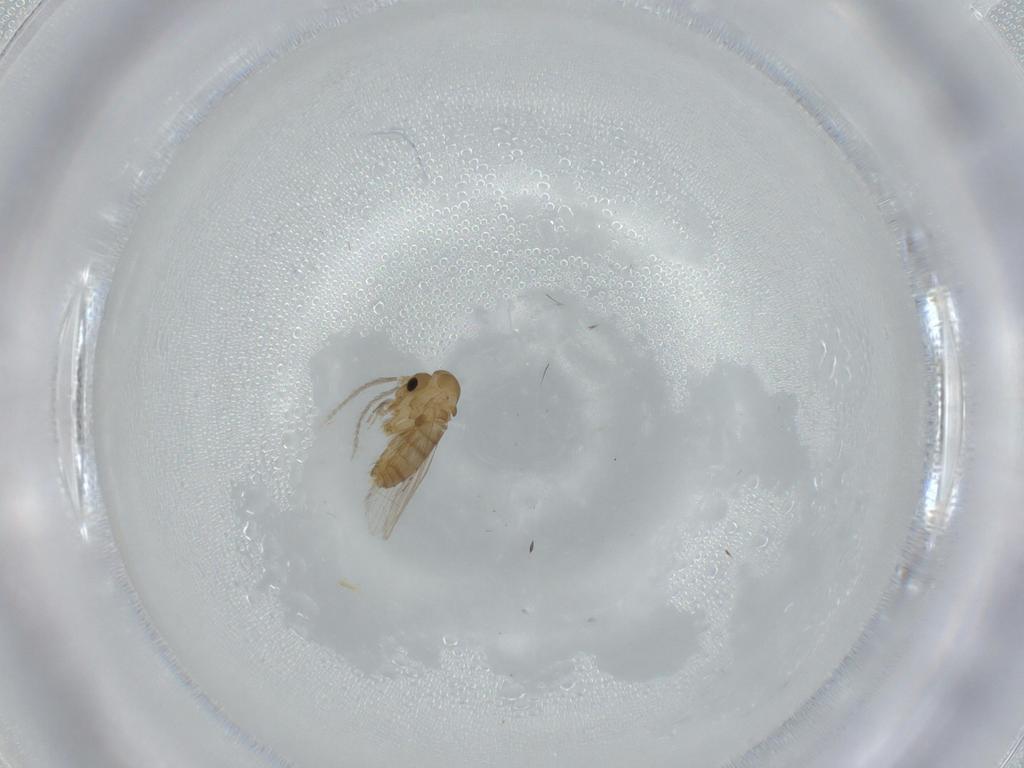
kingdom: Animalia
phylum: Arthropoda
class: Insecta
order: Diptera
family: Psychodidae
